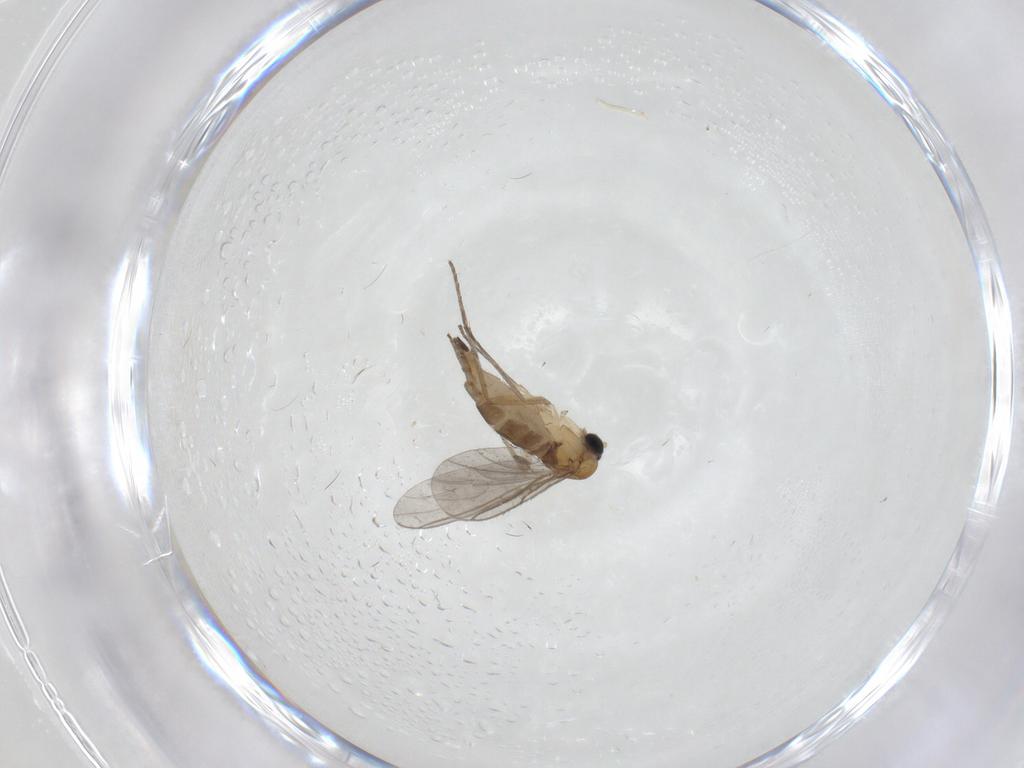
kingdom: Animalia
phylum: Arthropoda
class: Insecta
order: Diptera
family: Sciaridae
